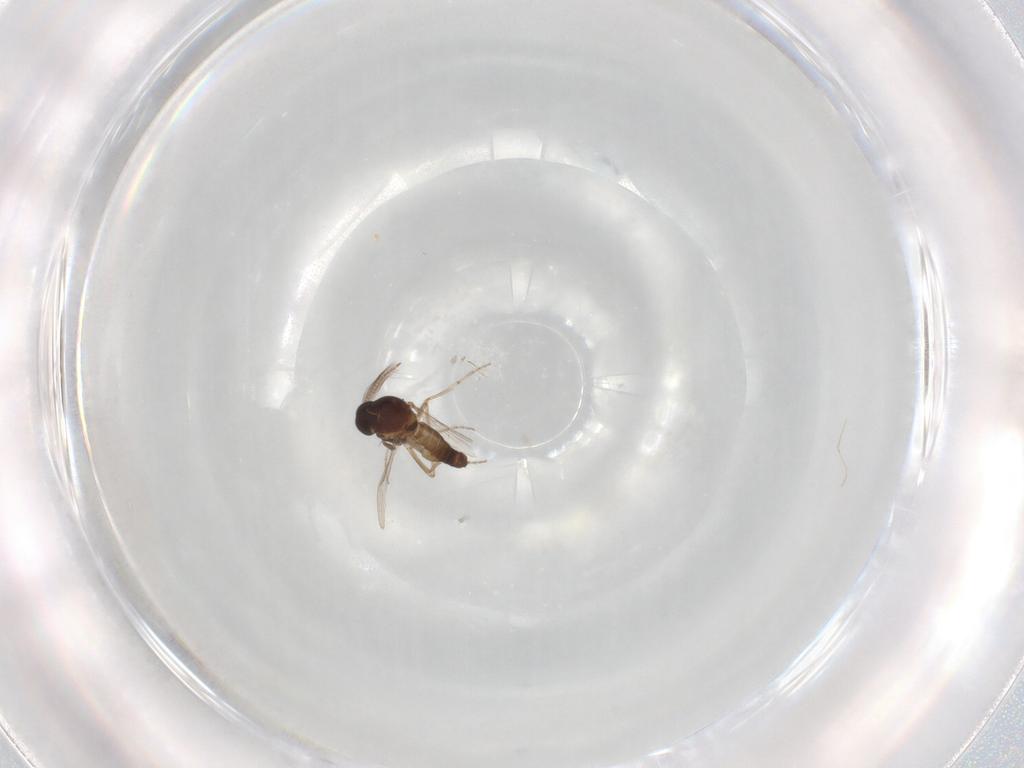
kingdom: Animalia
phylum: Arthropoda
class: Insecta
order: Diptera
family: Ceratopogonidae
